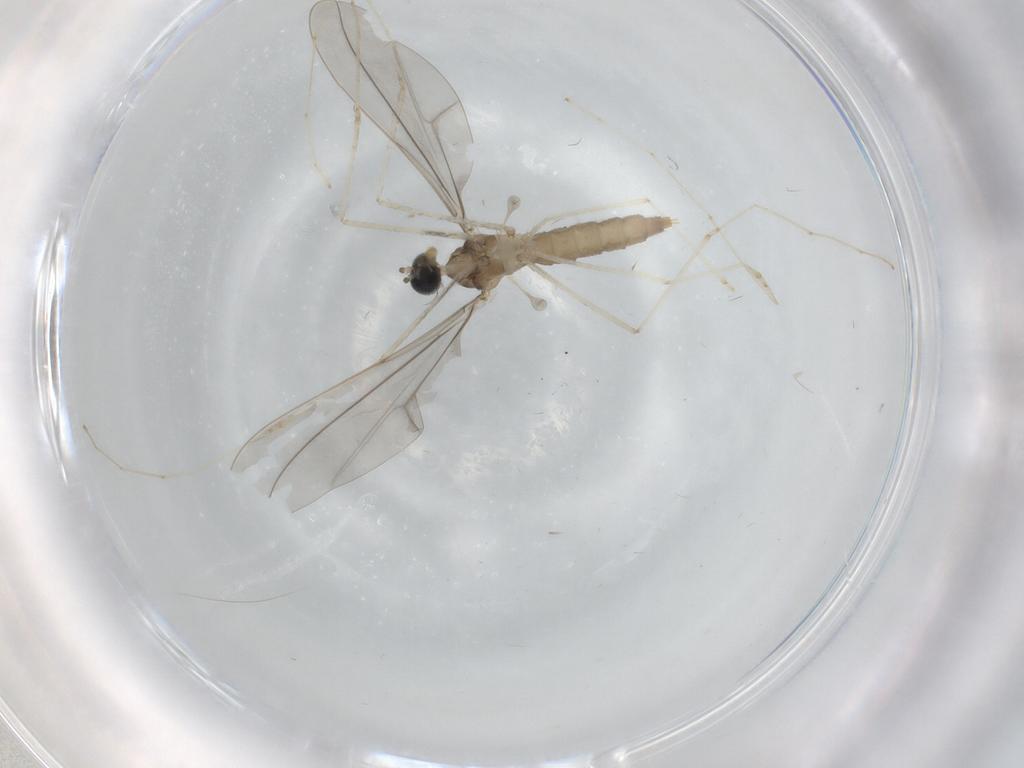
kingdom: Animalia
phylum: Arthropoda
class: Insecta
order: Diptera
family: Cecidomyiidae
